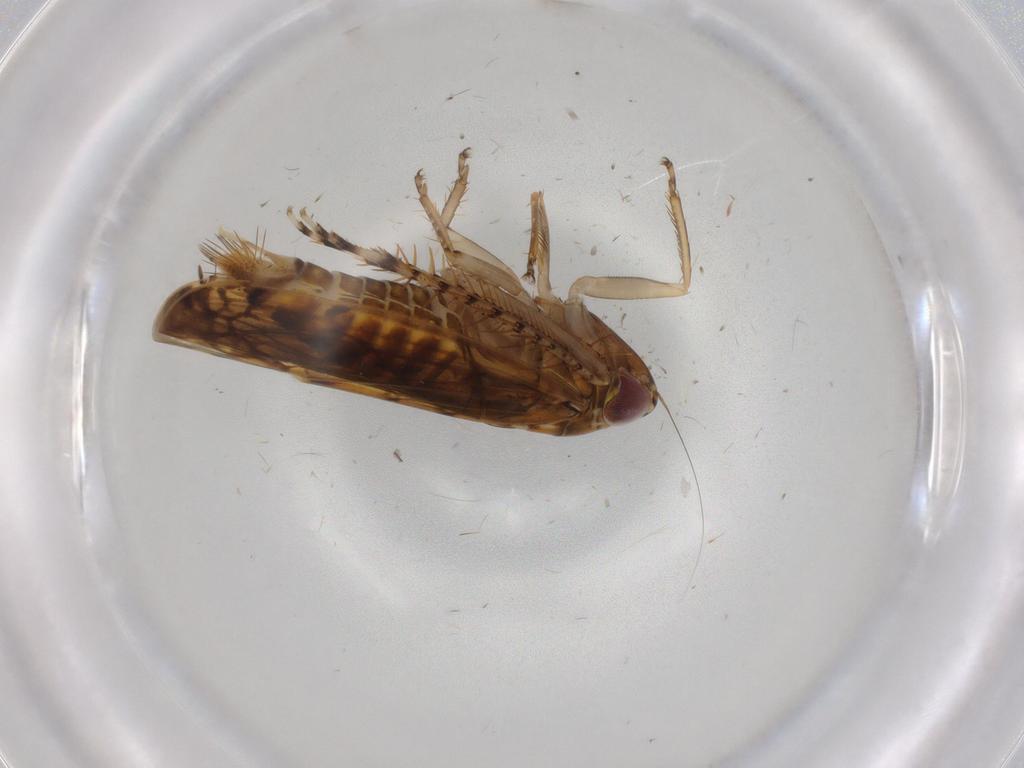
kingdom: Animalia
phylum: Arthropoda
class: Insecta
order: Hemiptera
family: Cicadellidae
